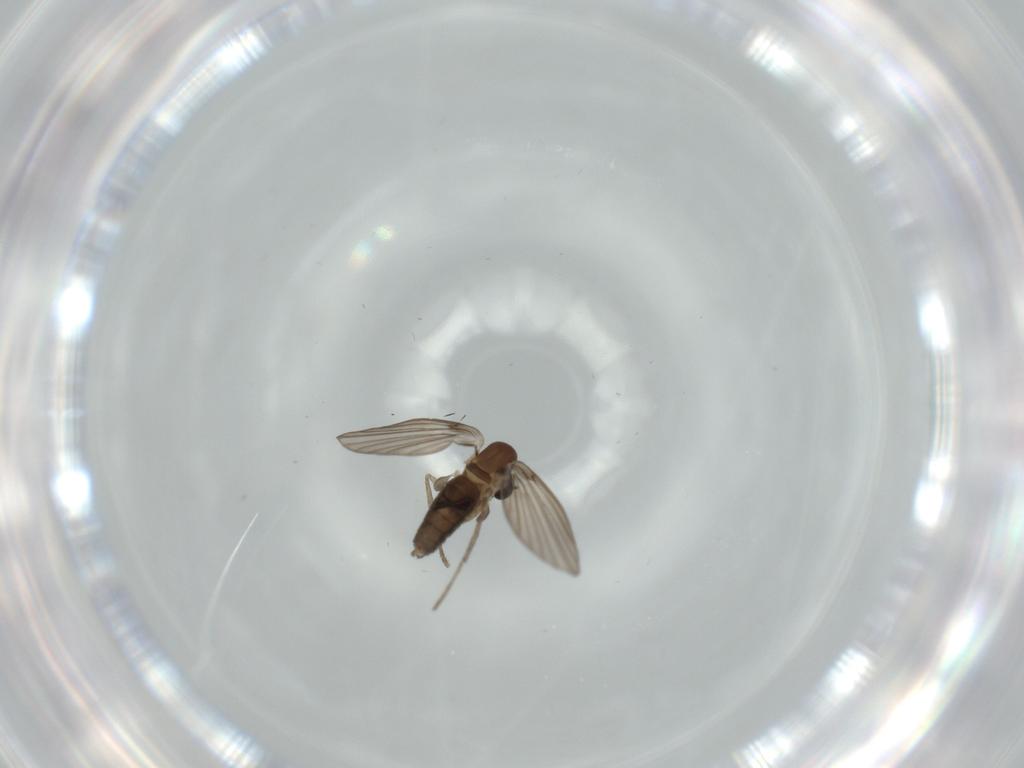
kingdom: Animalia
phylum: Arthropoda
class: Insecta
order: Diptera
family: Psychodidae
